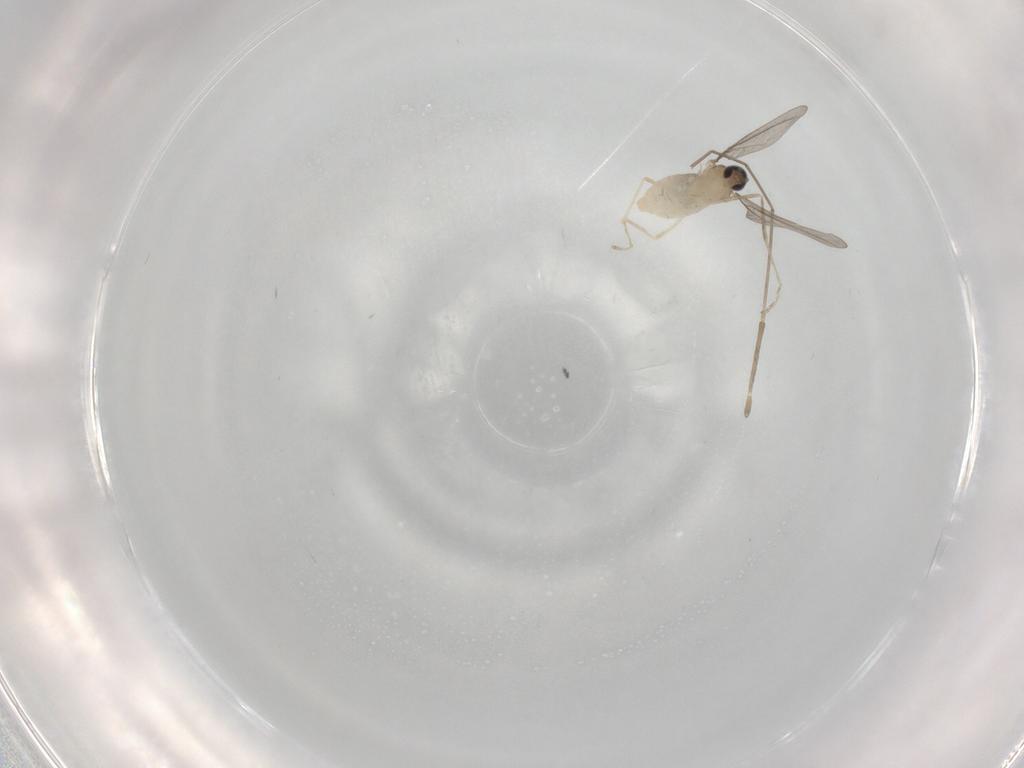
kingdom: Animalia
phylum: Arthropoda
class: Insecta
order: Diptera
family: Cecidomyiidae
